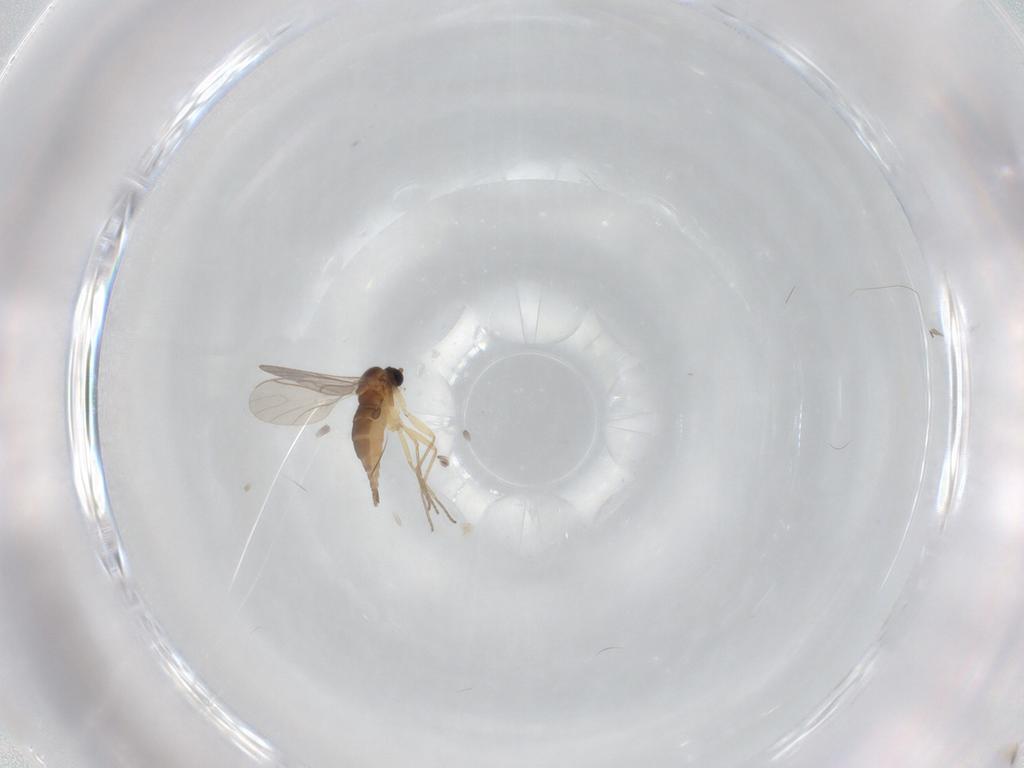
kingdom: Animalia
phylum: Arthropoda
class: Insecta
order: Diptera
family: Sciaridae
